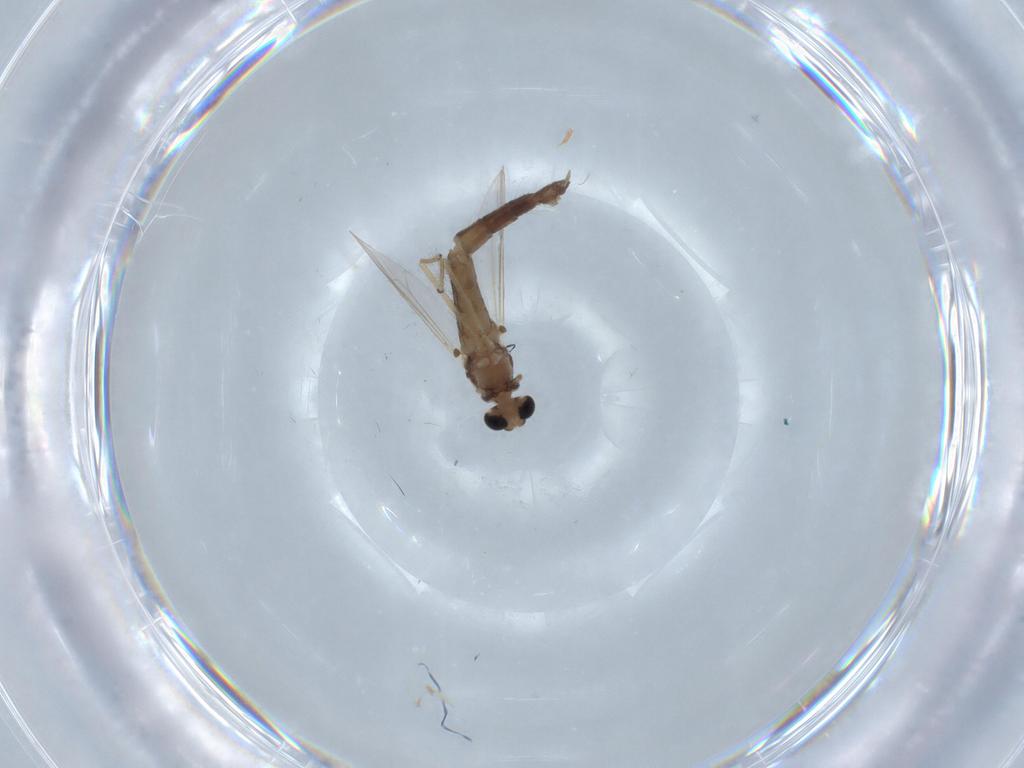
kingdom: Animalia
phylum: Arthropoda
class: Insecta
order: Diptera
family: Chironomidae
